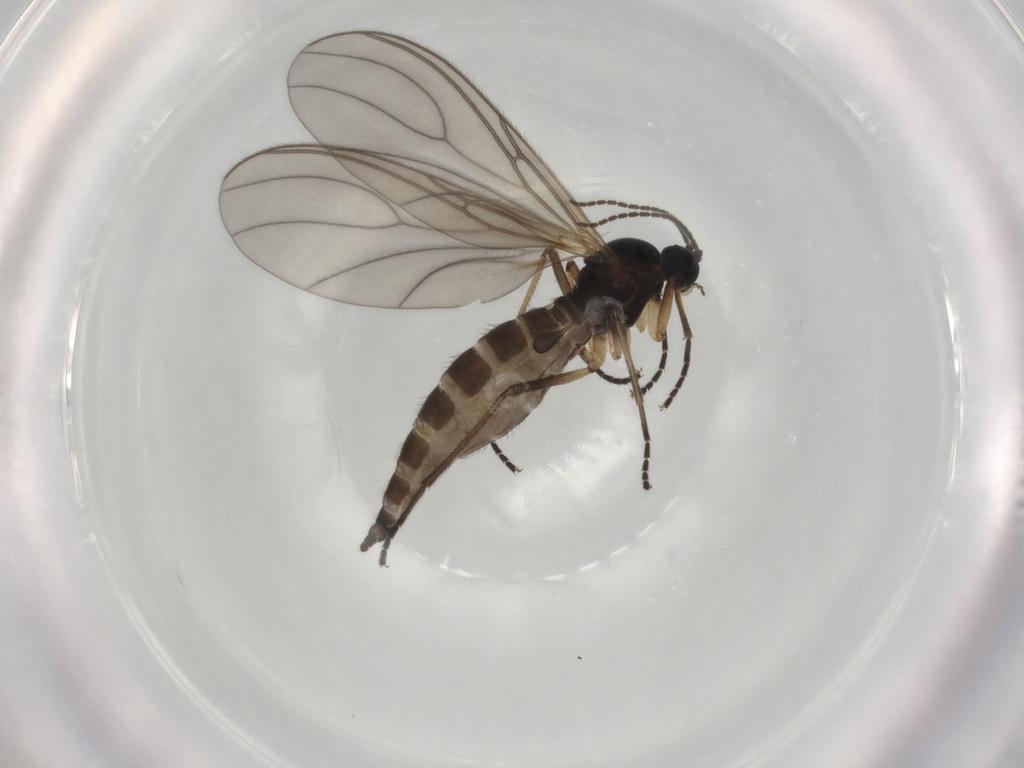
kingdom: Animalia
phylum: Arthropoda
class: Insecta
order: Diptera
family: Sciaridae
